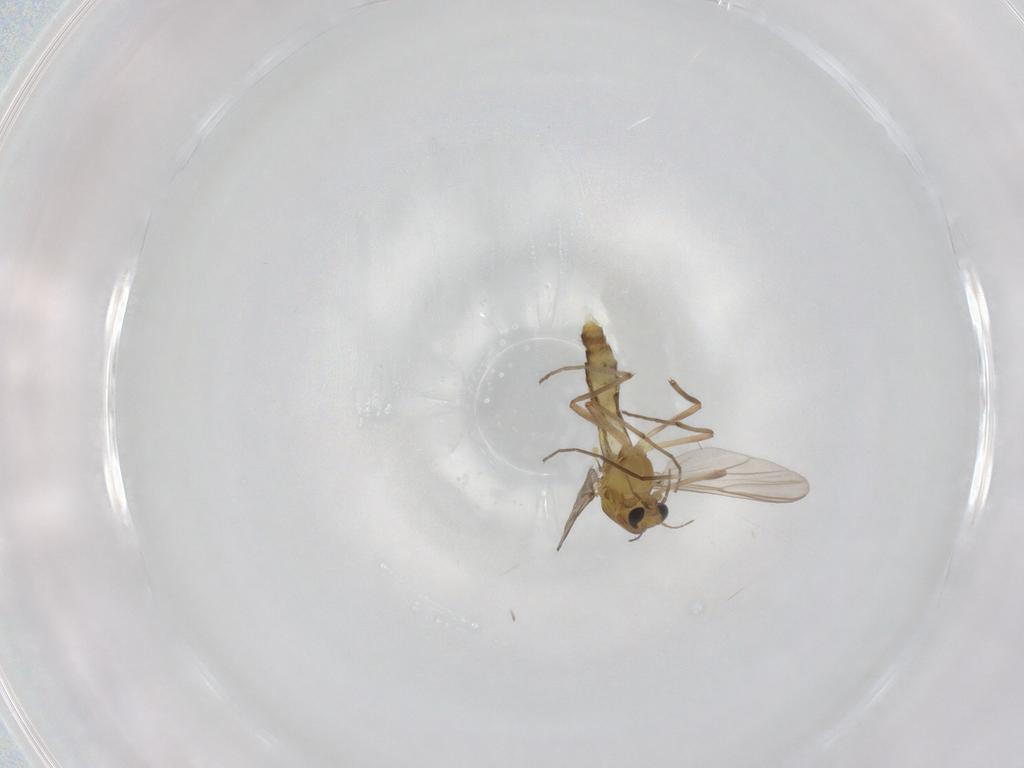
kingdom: Animalia
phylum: Arthropoda
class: Insecta
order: Diptera
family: Chironomidae
